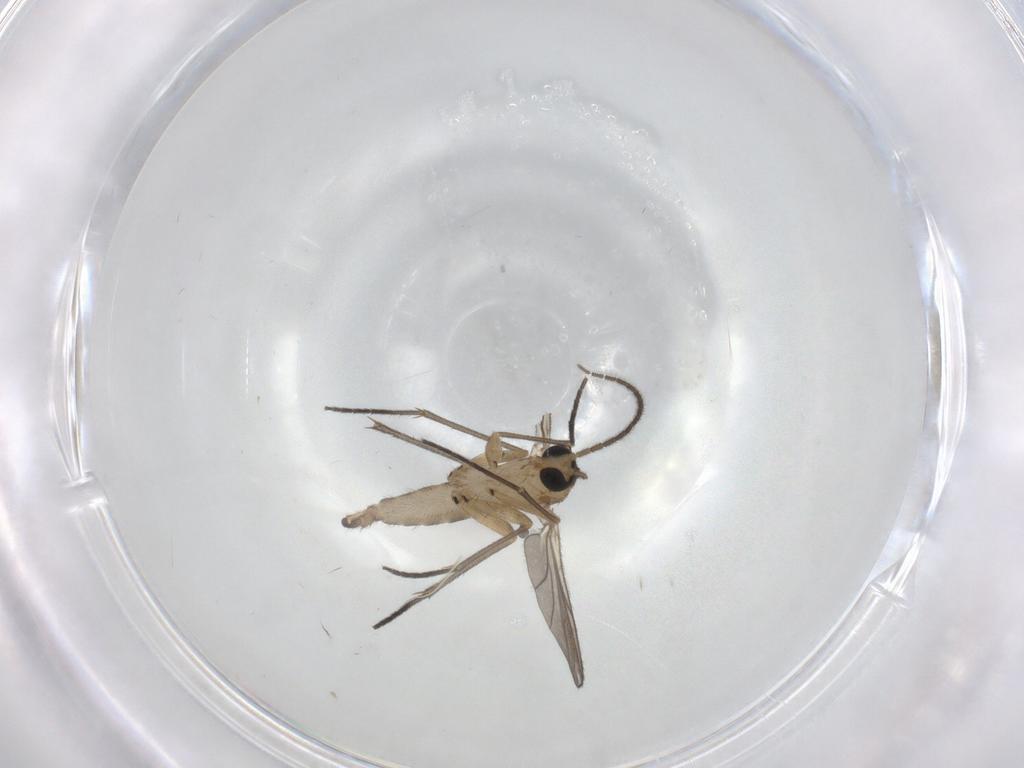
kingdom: Animalia
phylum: Arthropoda
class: Insecta
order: Diptera
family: Sciaridae
